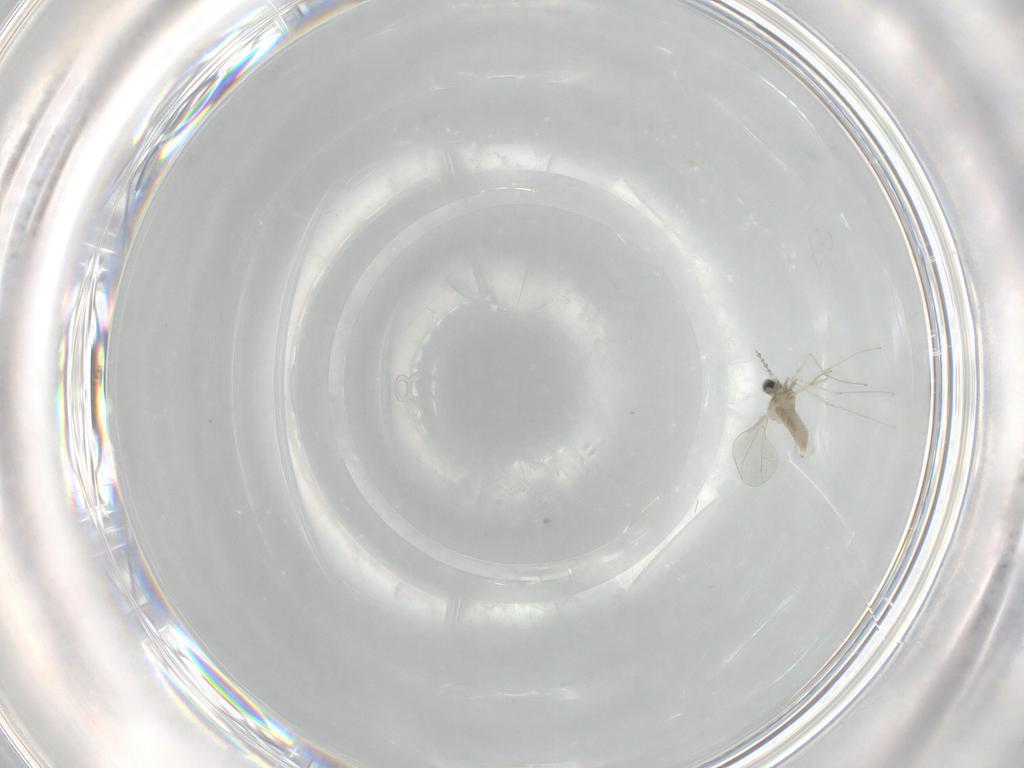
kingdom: Animalia
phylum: Arthropoda
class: Insecta
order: Diptera
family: Cecidomyiidae
